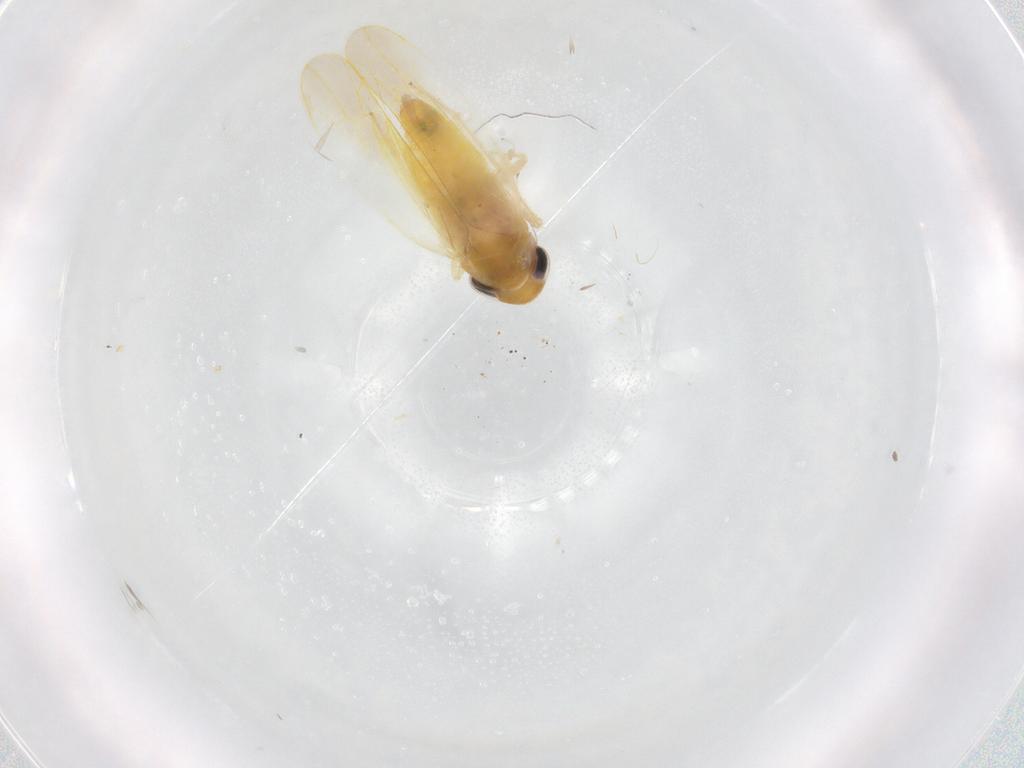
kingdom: Animalia
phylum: Arthropoda
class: Insecta
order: Hemiptera
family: Cicadellidae
